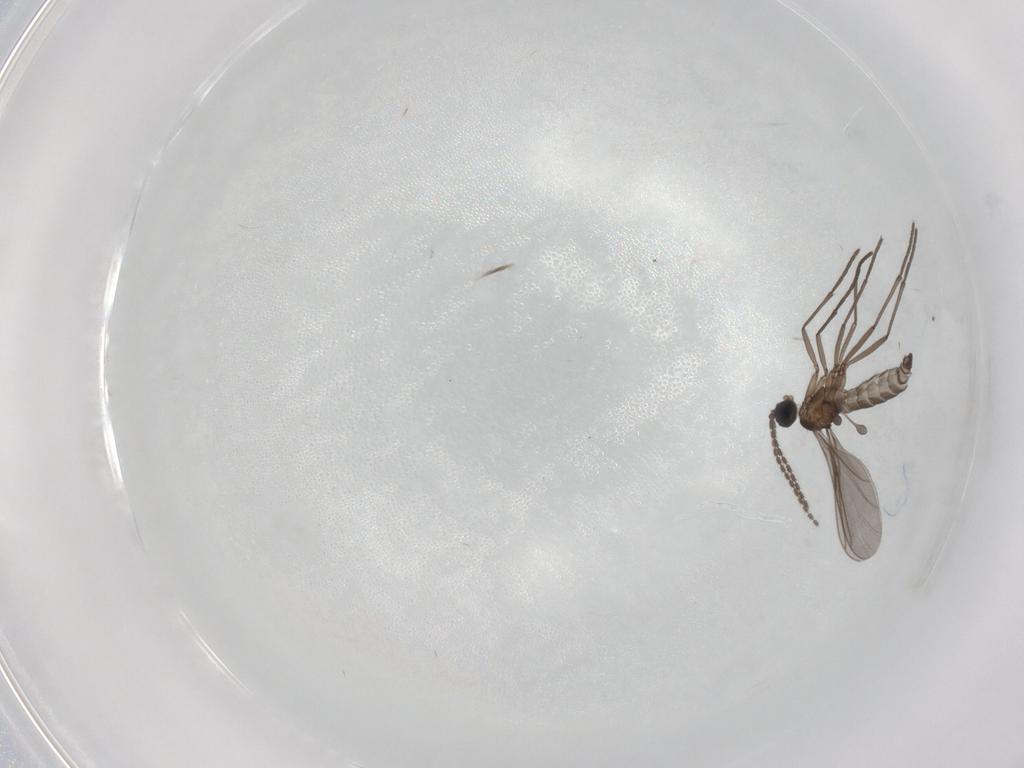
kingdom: Animalia
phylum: Arthropoda
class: Insecta
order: Diptera
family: Sciaridae
